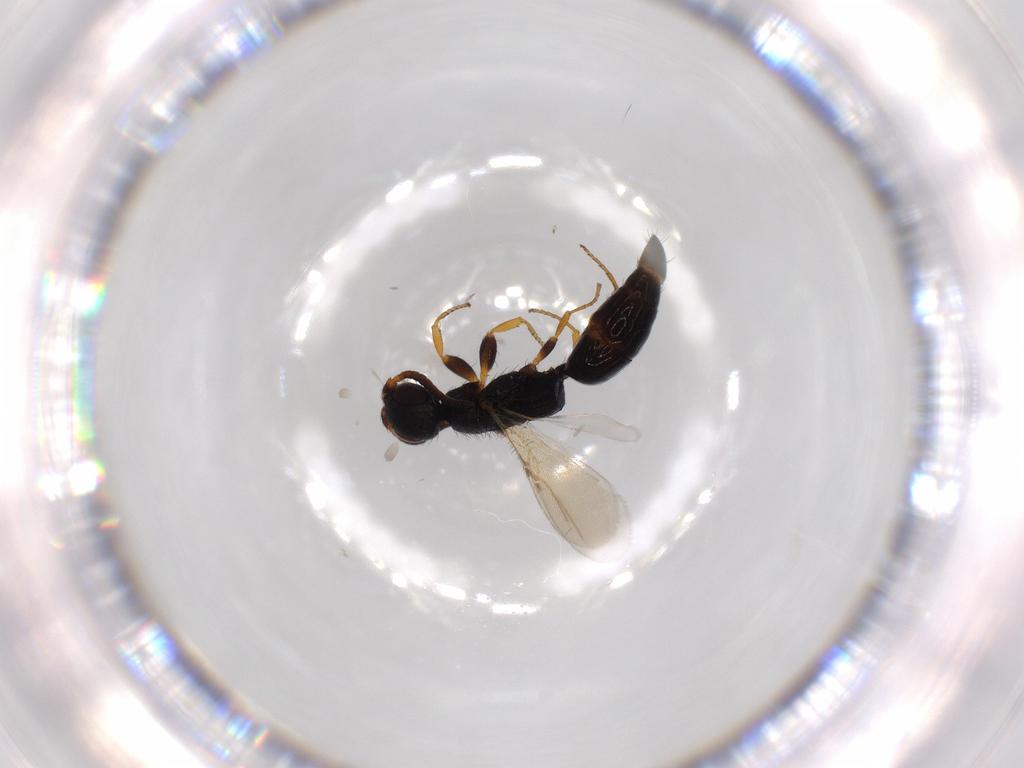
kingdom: Animalia
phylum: Arthropoda
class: Insecta
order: Hymenoptera
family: Bethylidae
